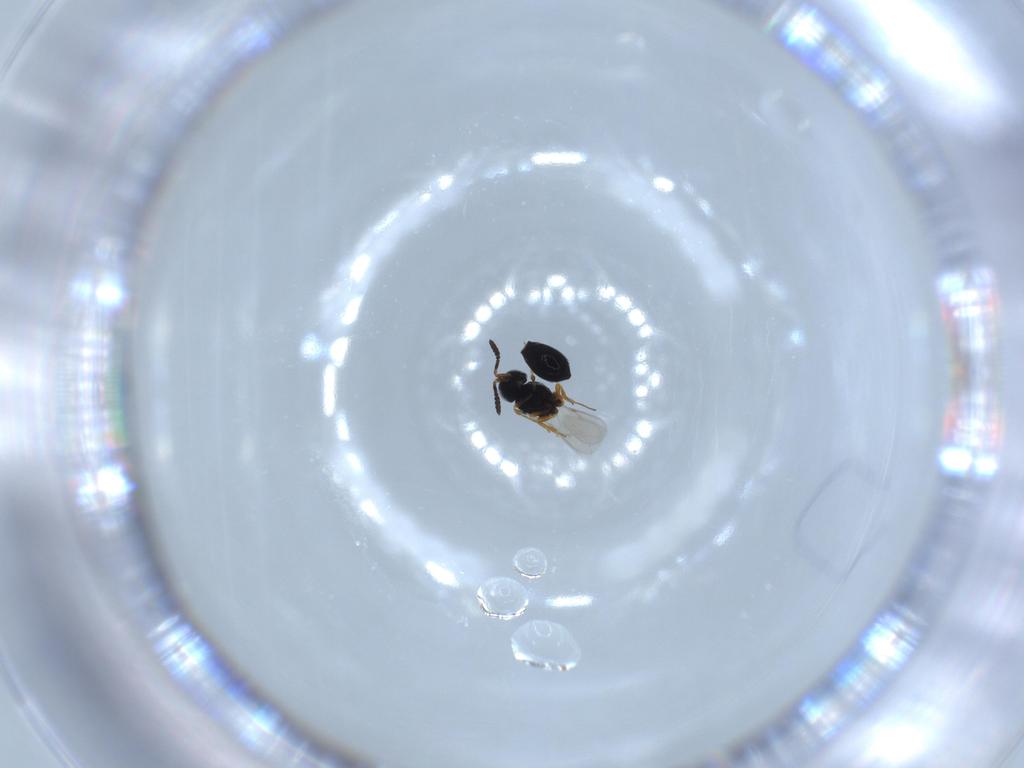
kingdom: Animalia
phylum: Arthropoda
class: Insecta
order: Hymenoptera
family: Scelionidae
